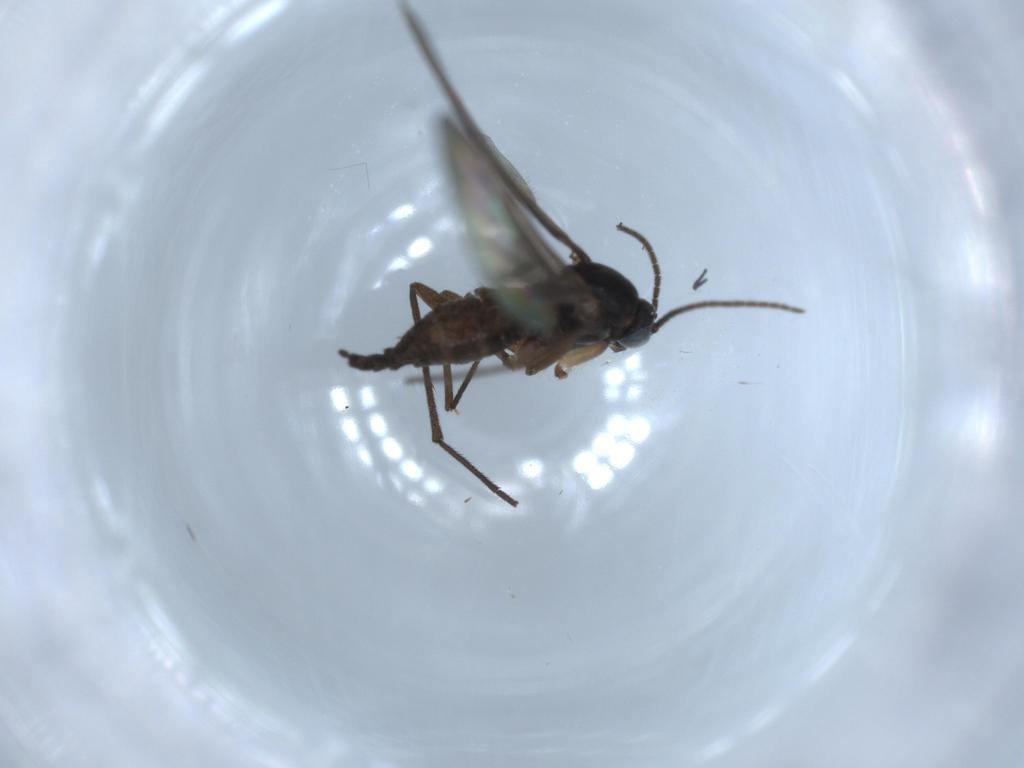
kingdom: Animalia
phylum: Arthropoda
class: Insecta
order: Diptera
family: Sciaridae
